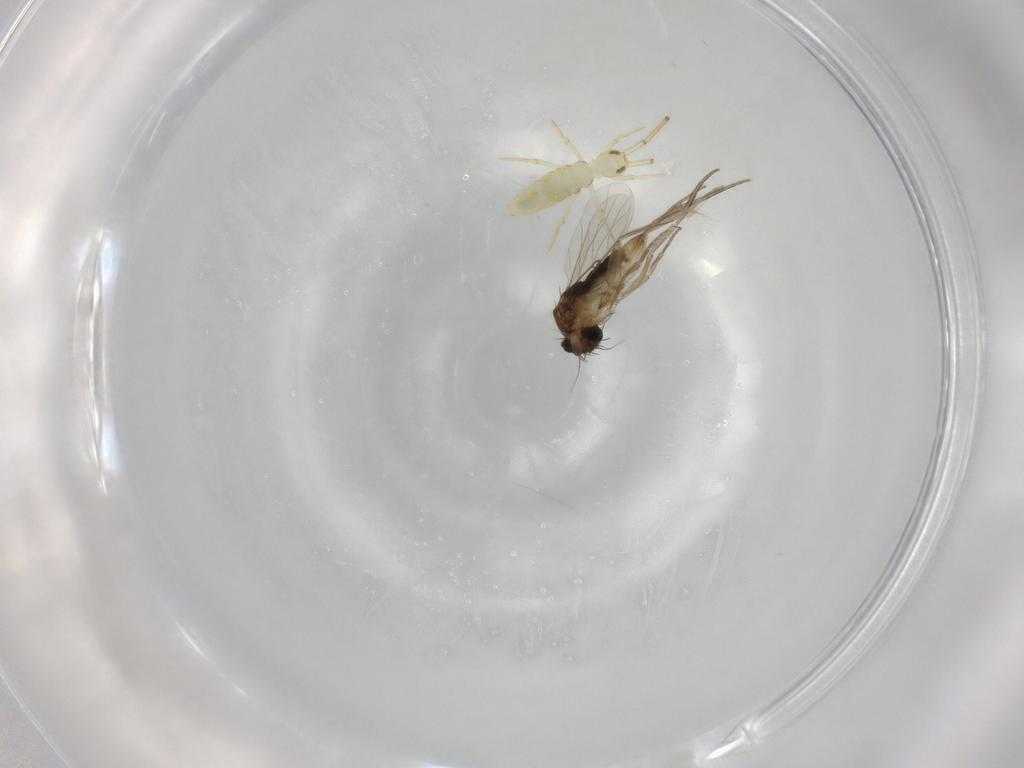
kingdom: Animalia
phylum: Arthropoda
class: Insecta
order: Diptera
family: Phoridae
